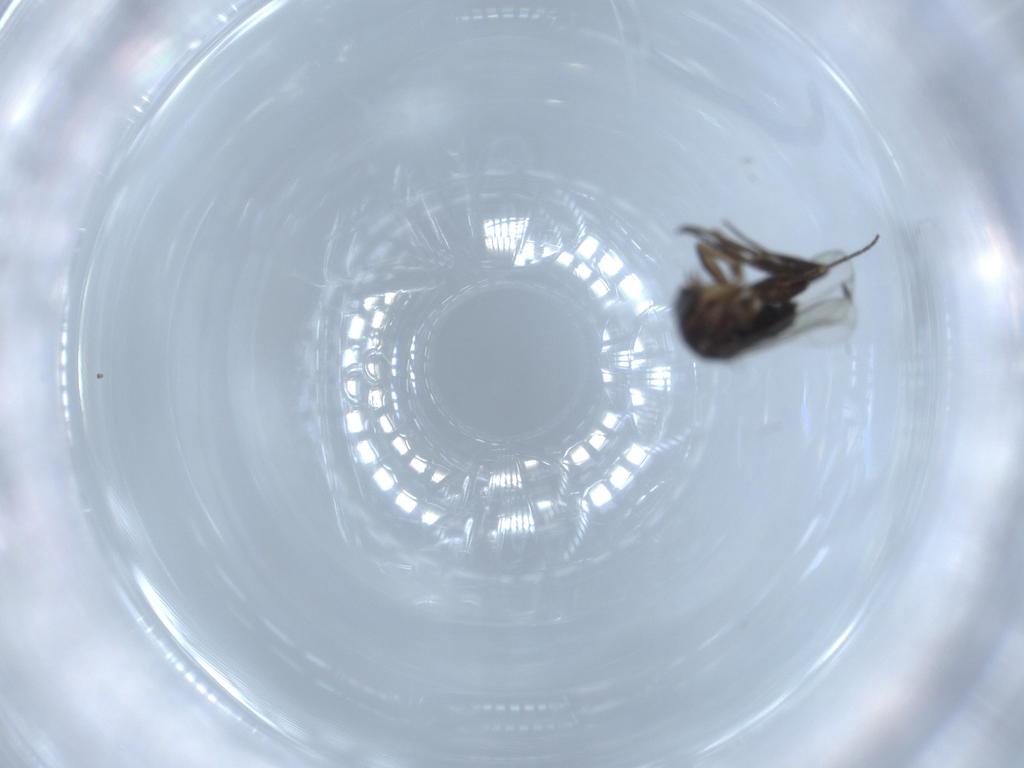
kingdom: Animalia
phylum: Arthropoda
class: Insecta
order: Diptera
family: Phoridae
